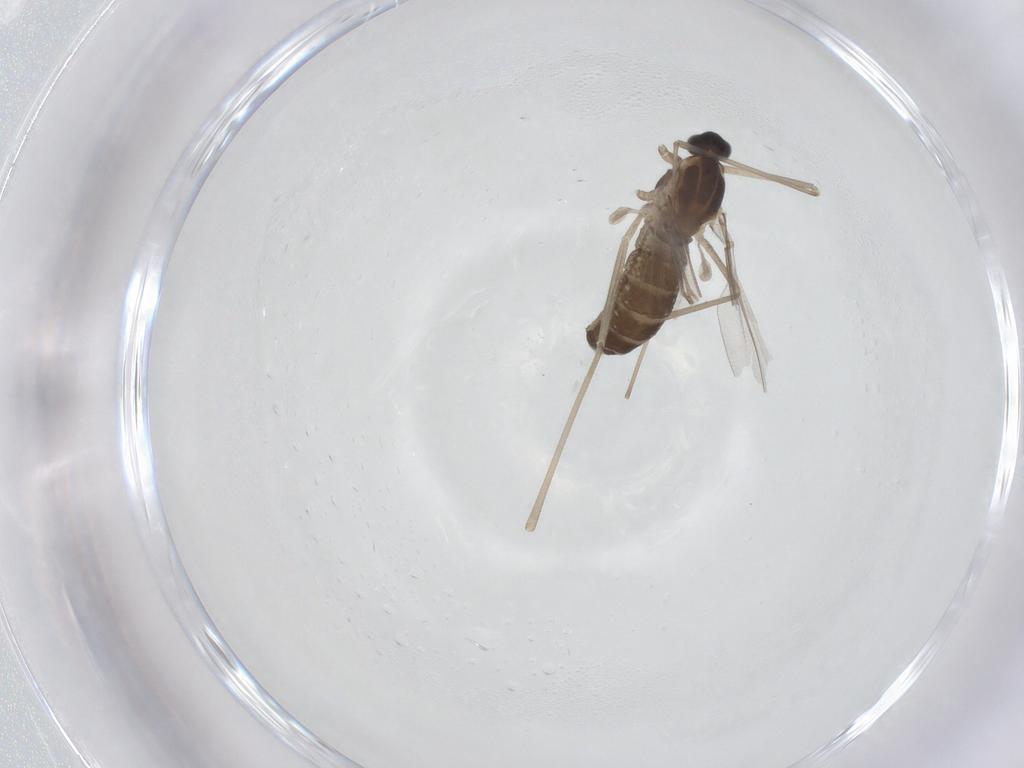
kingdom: Animalia
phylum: Arthropoda
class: Insecta
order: Diptera
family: Cecidomyiidae
